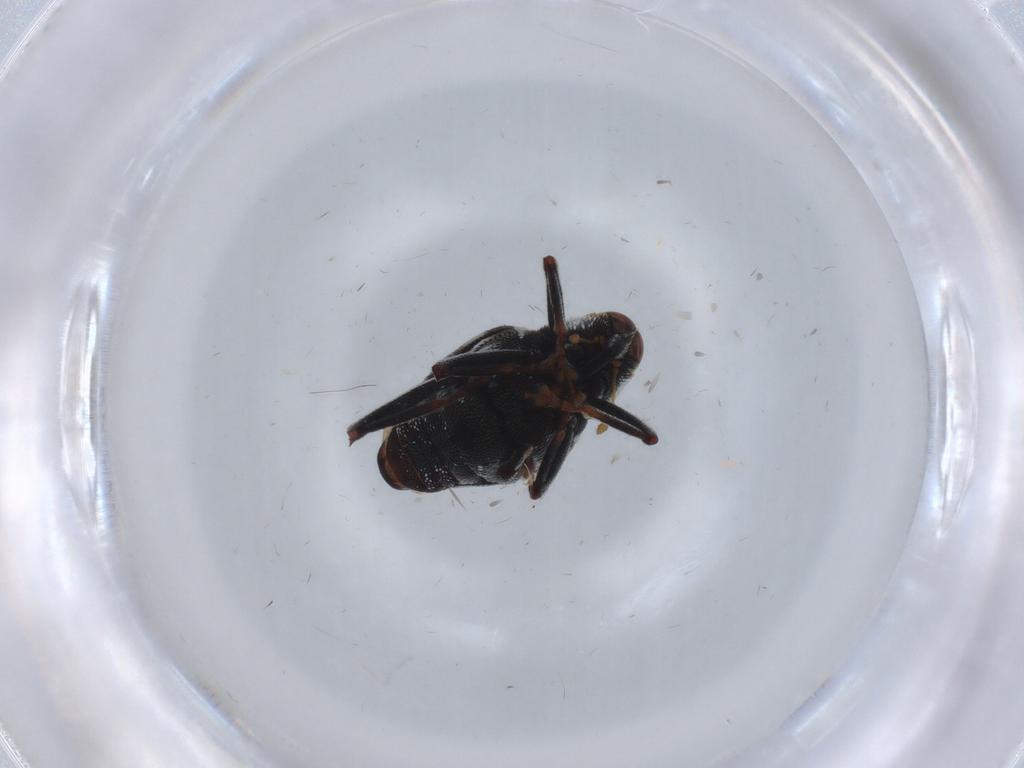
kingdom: Animalia
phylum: Arthropoda
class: Insecta
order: Coleoptera
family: Curculionidae
